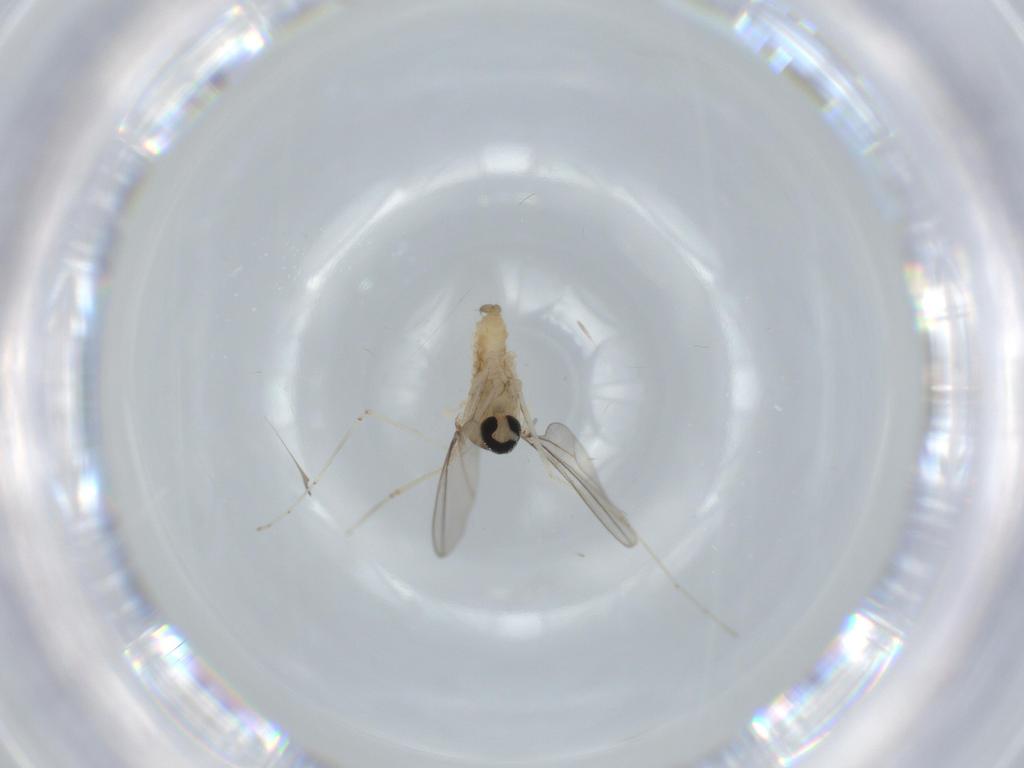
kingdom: Animalia
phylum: Arthropoda
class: Insecta
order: Diptera
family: Cecidomyiidae
